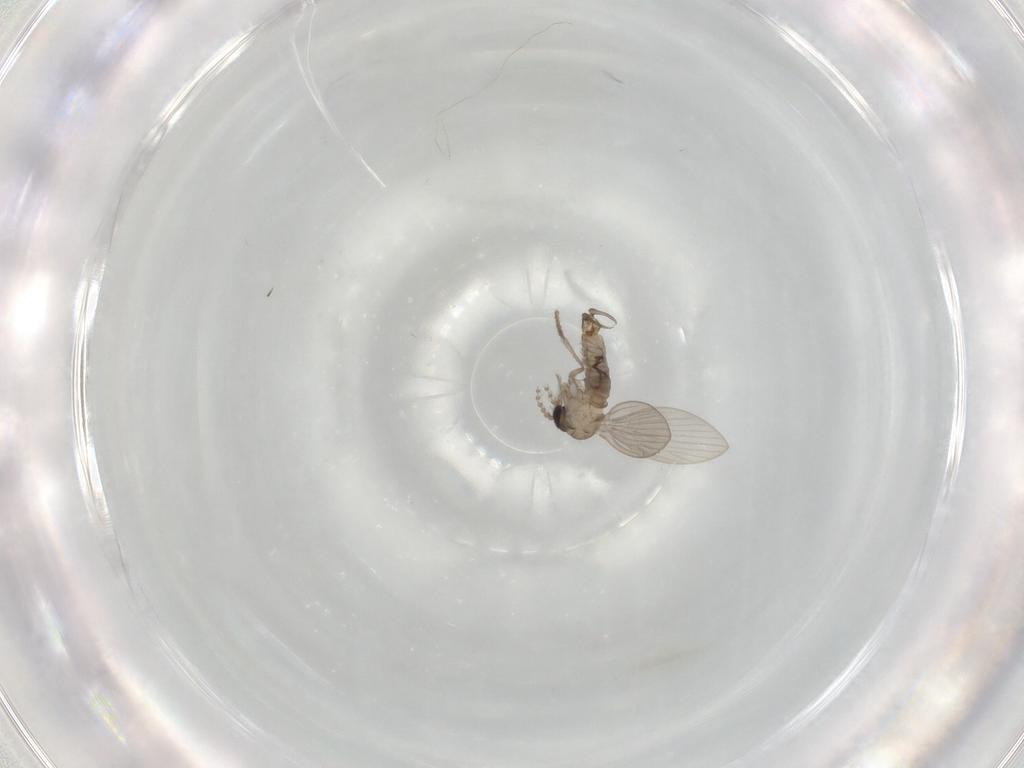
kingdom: Animalia
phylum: Arthropoda
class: Insecta
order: Diptera
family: Psychodidae
